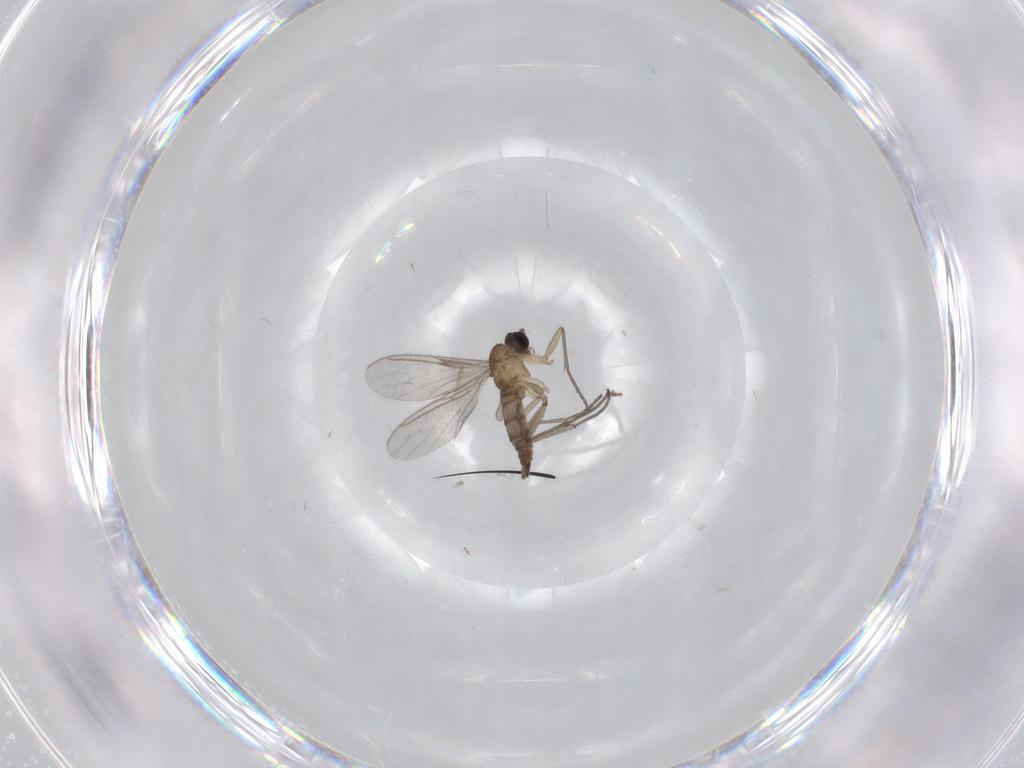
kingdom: Animalia
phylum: Arthropoda
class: Insecta
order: Diptera
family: Sciaridae
